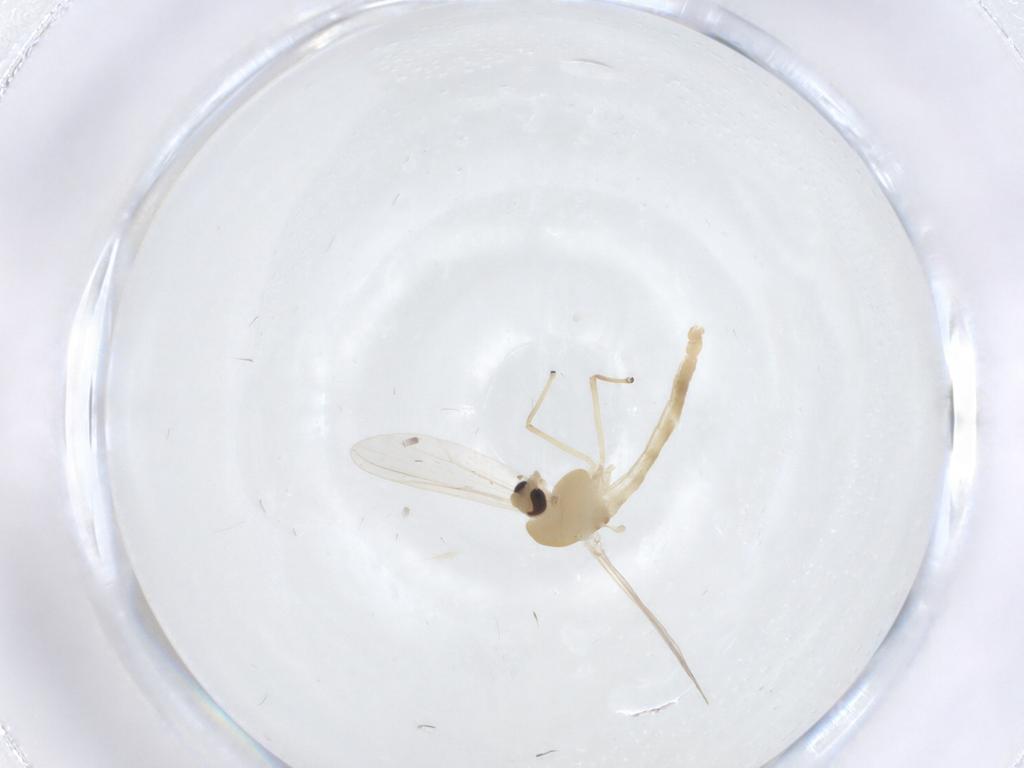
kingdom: Animalia
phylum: Arthropoda
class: Insecta
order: Diptera
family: Chironomidae
